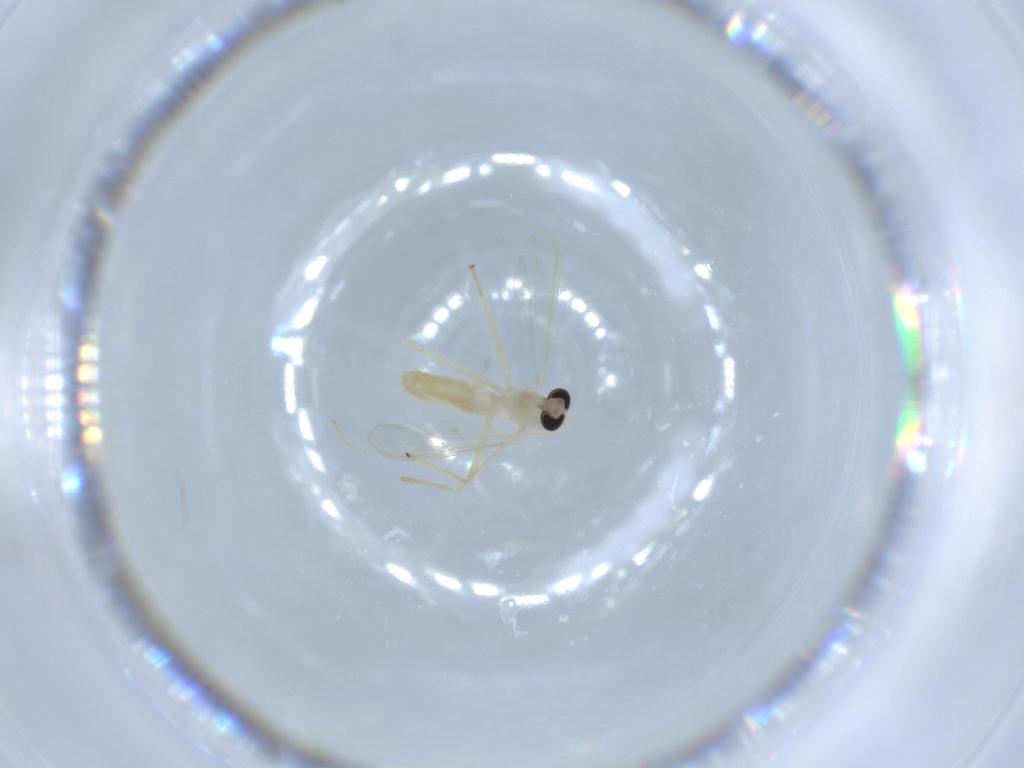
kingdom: Animalia
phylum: Arthropoda
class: Insecta
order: Diptera
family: Chironomidae
